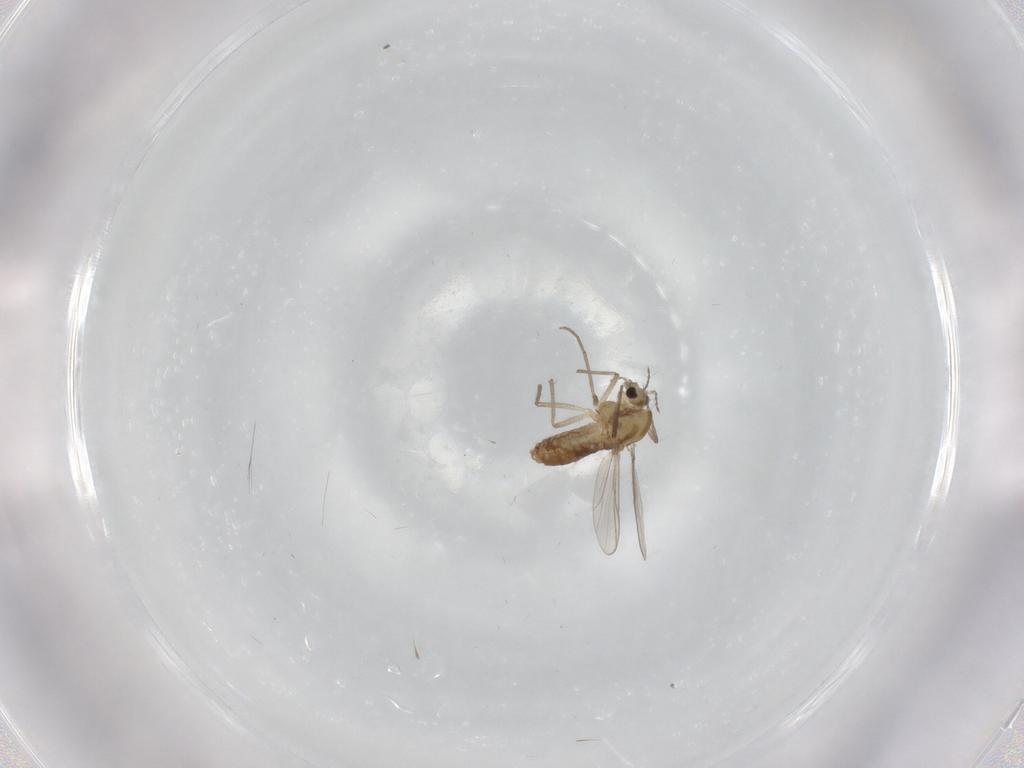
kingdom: Animalia
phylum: Arthropoda
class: Insecta
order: Diptera
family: Chironomidae
